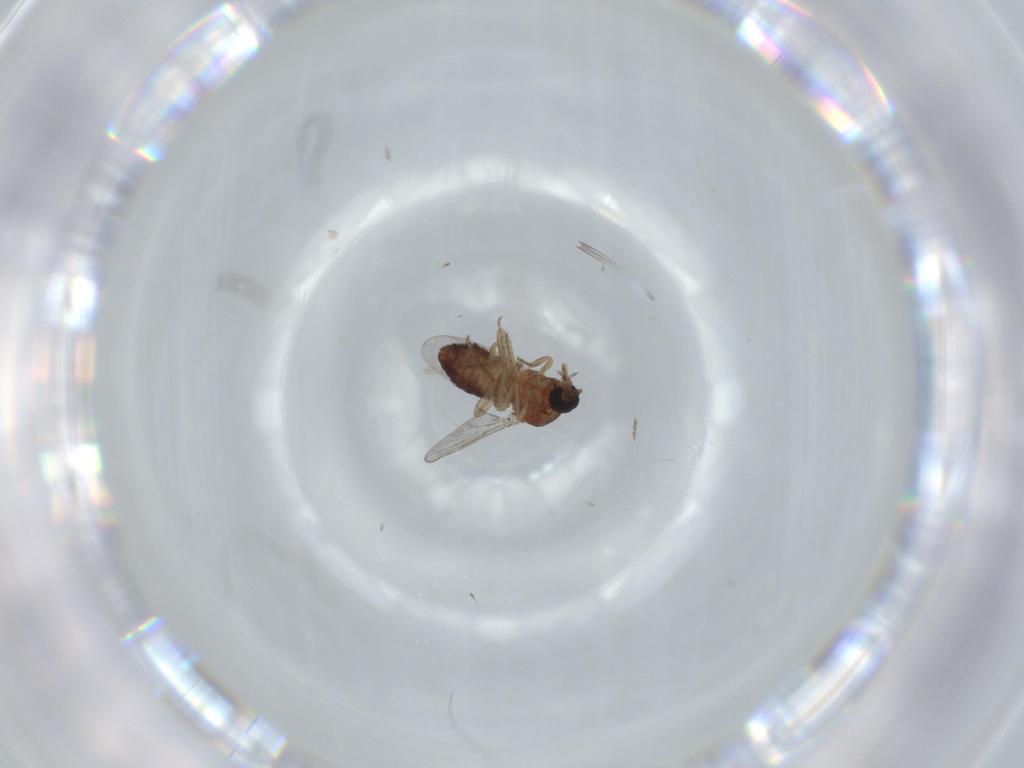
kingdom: Animalia
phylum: Arthropoda
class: Insecta
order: Diptera
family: Ceratopogonidae
